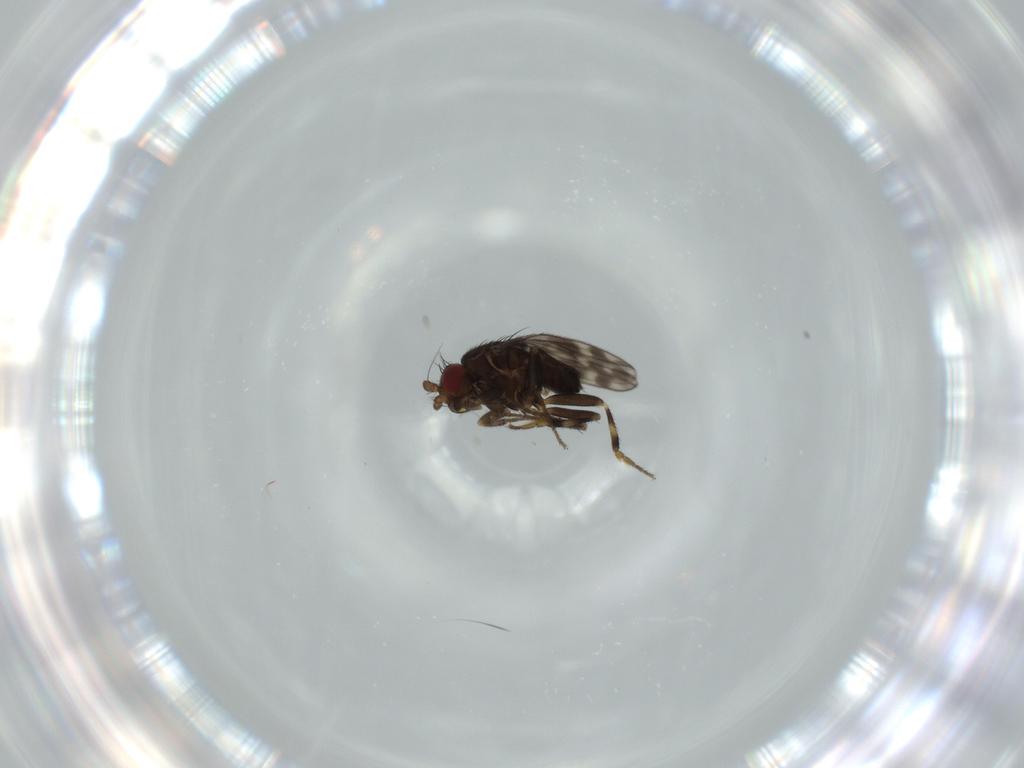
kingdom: Animalia
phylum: Arthropoda
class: Insecta
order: Diptera
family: Sphaeroceridae
